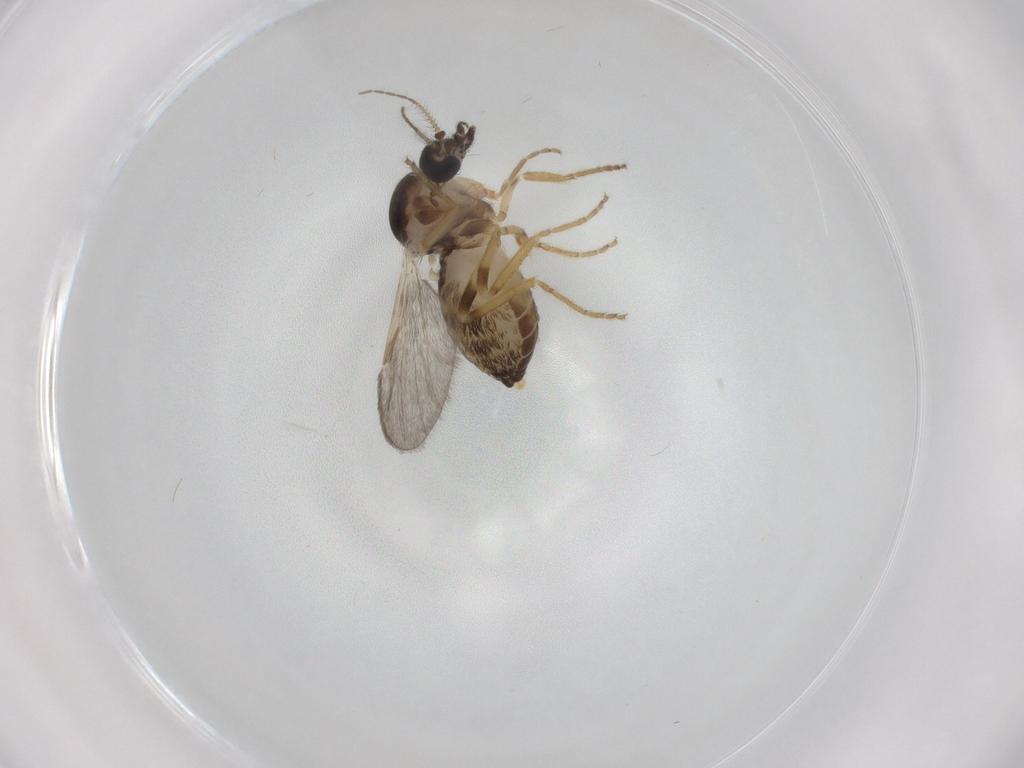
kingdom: Animalia
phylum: Arthropoda
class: Insecta
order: Diptera
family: Ceratopogonidae
